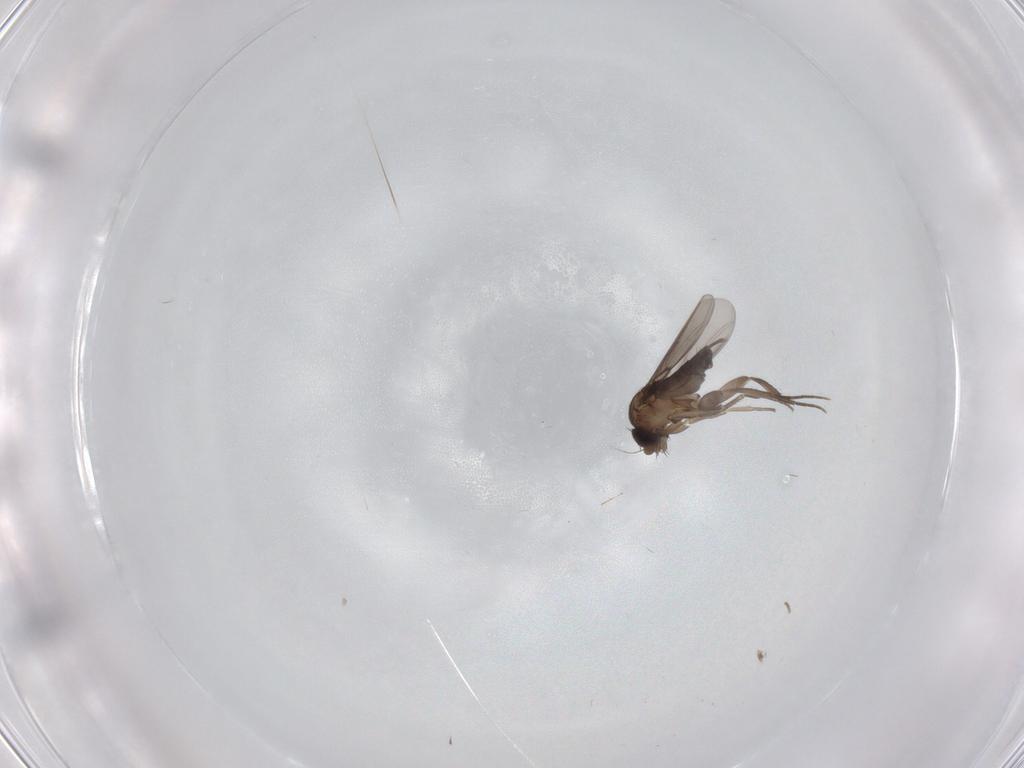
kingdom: Animalia
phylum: Arthropoda
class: Insecta
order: Diptera
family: Phoridae
